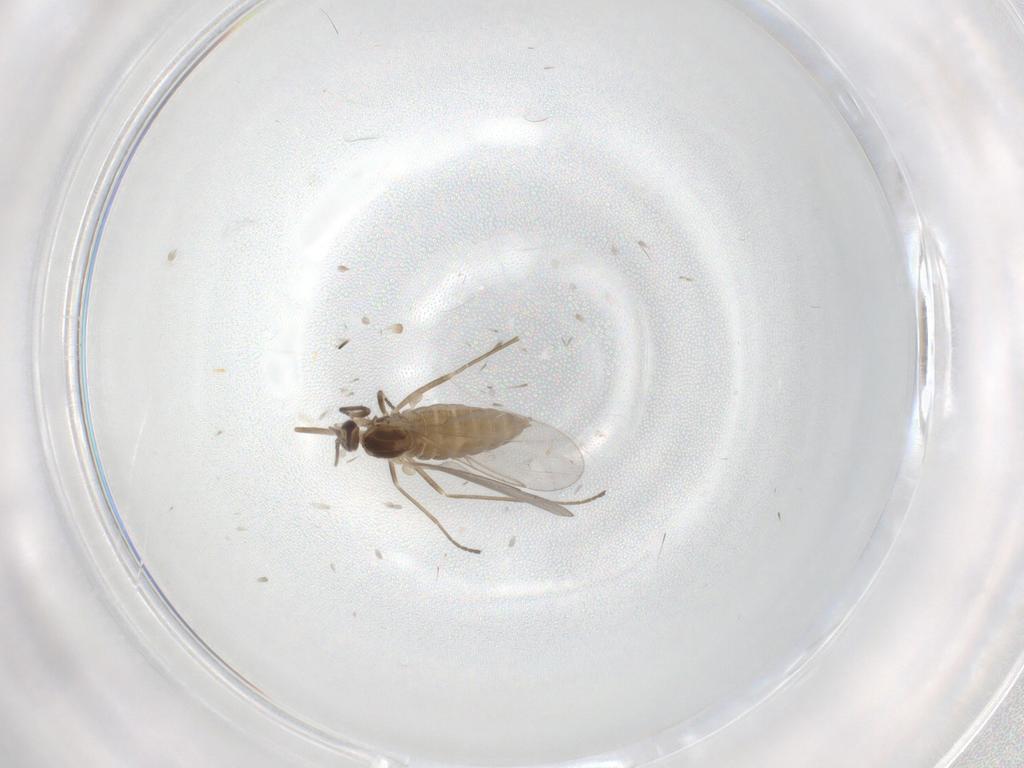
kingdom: Animalia
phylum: Arthropoda
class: Insecta
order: Diptera
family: Cecidomyiidae
